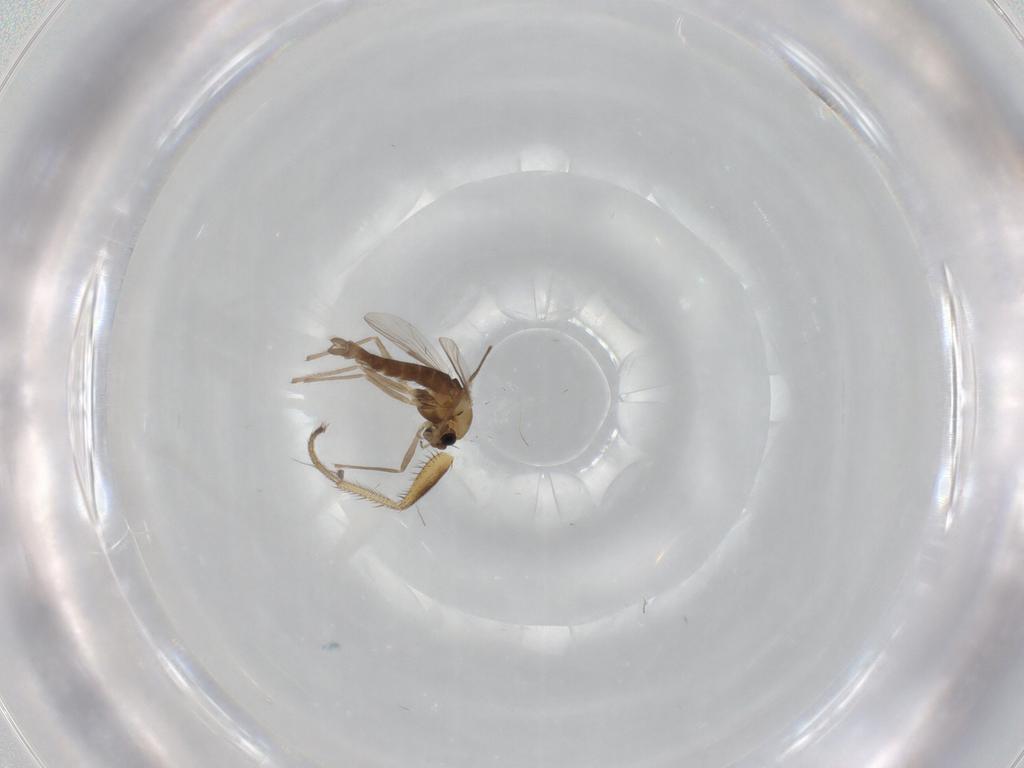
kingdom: Animalia
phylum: Arthropoda
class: Insecta
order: Diptera
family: Chironomidae
